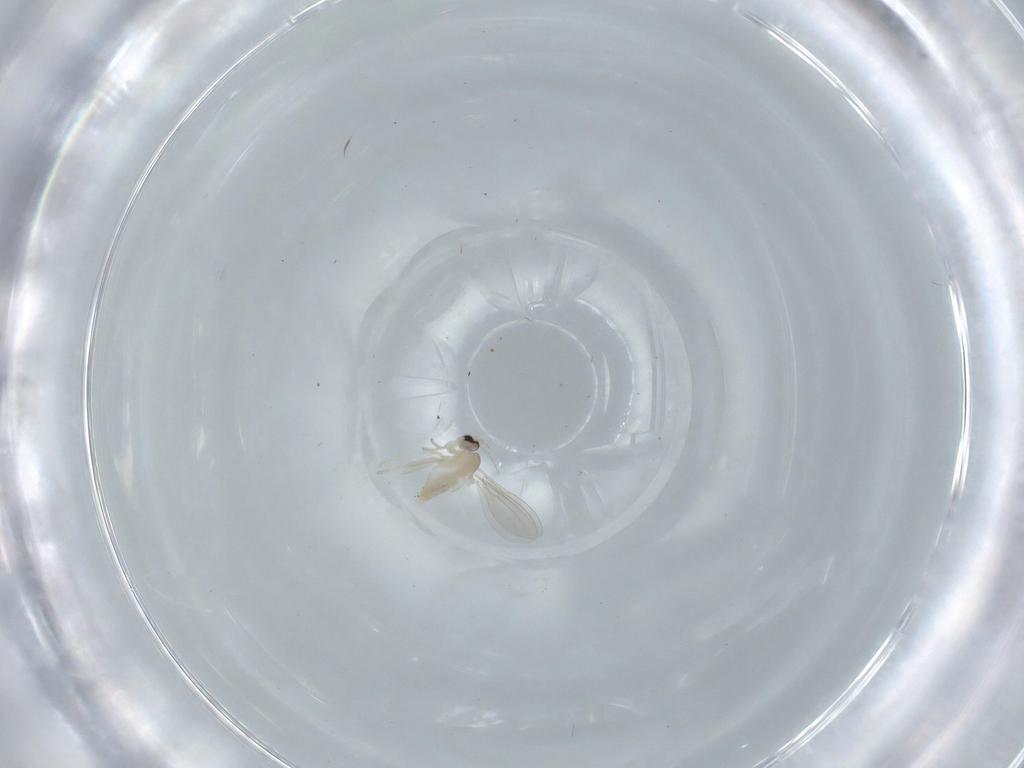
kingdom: Animalia
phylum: Arthropoda
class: Insecta
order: Diptera
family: Cecidomyiidae
